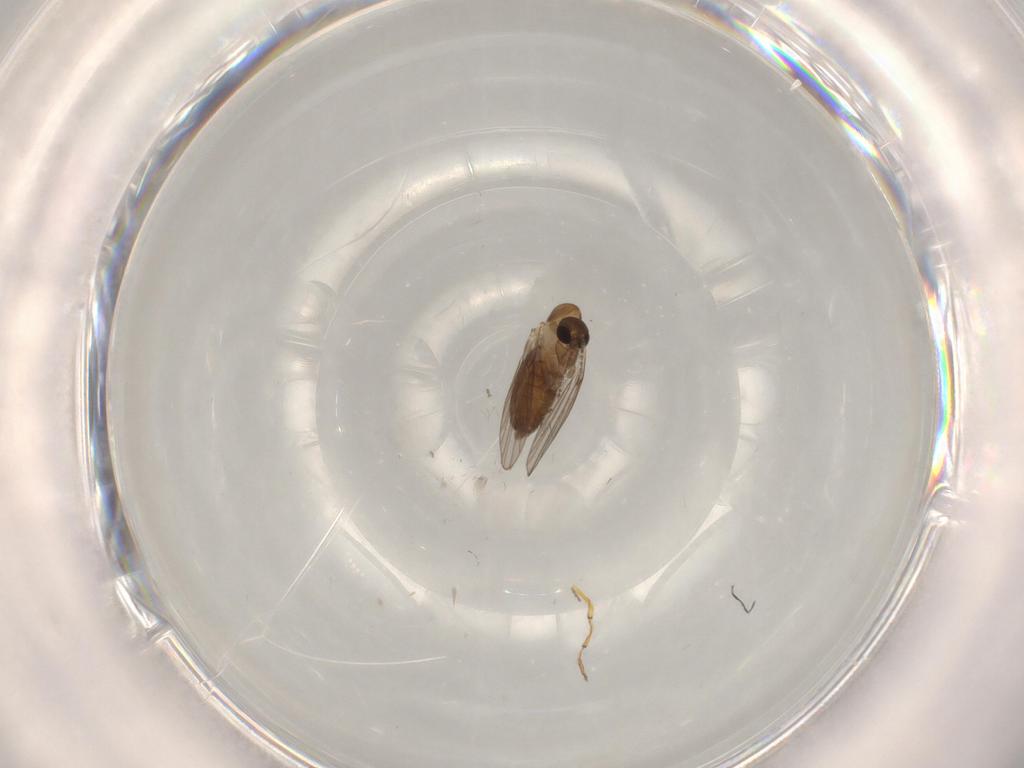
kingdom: Animalia
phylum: Arthropoda
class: Insecta
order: Diptera
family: Psychodidae
